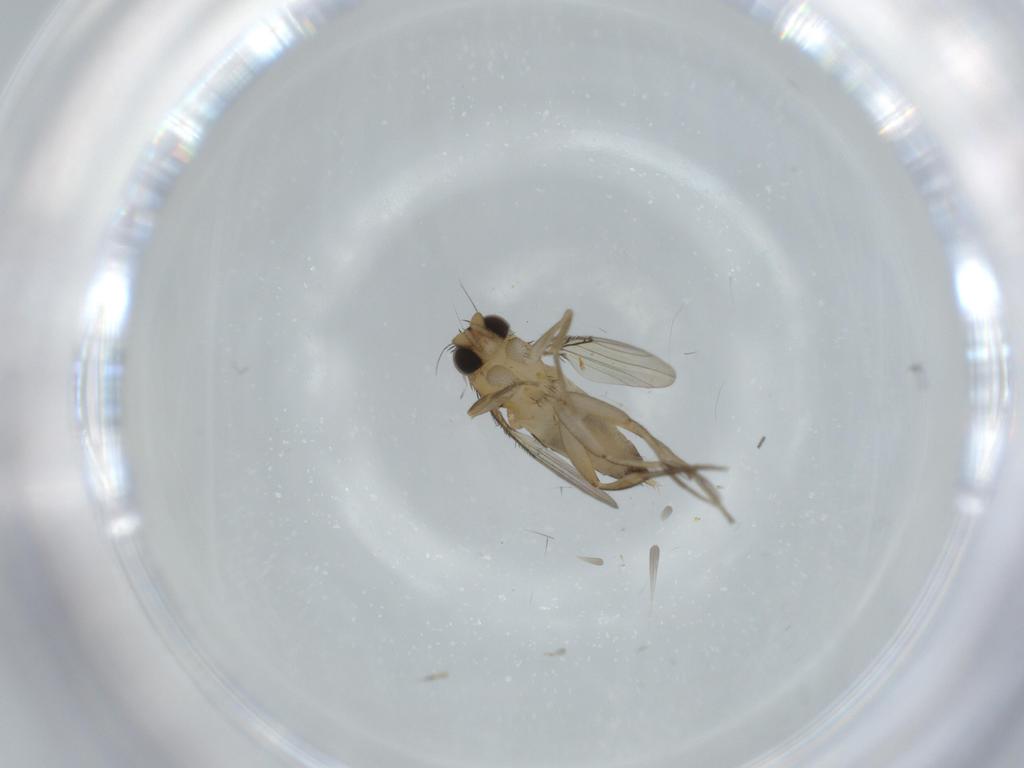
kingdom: Animalia
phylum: Arthropoda
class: Insecta
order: Diptera
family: Phoridae
